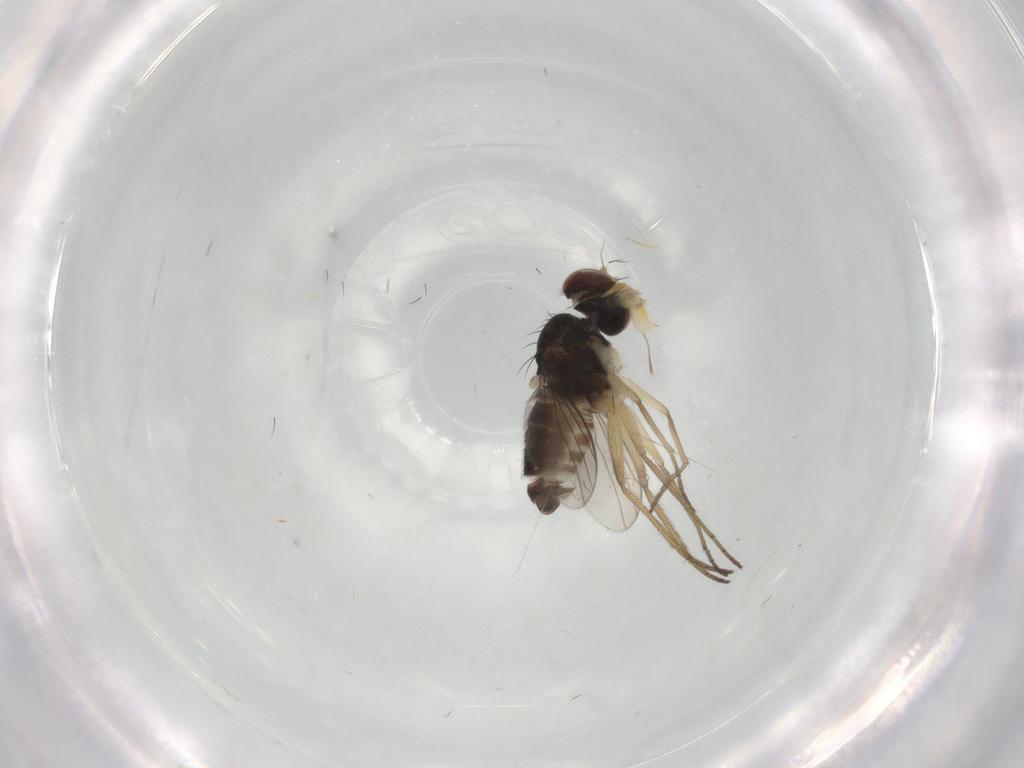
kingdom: Animalia
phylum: Arthropoda
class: Insecta
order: Diptera
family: Dolichopodidae
